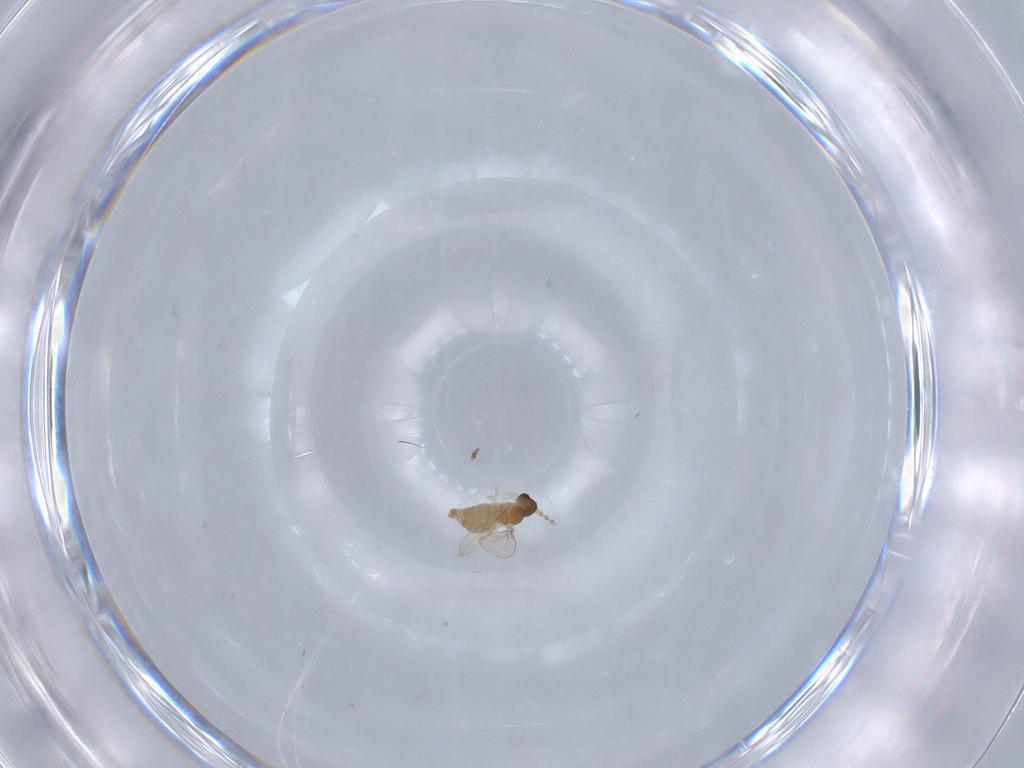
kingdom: Animalia
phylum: Arthropoda
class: Insecta
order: Diptera
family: Cecidomyiidae
